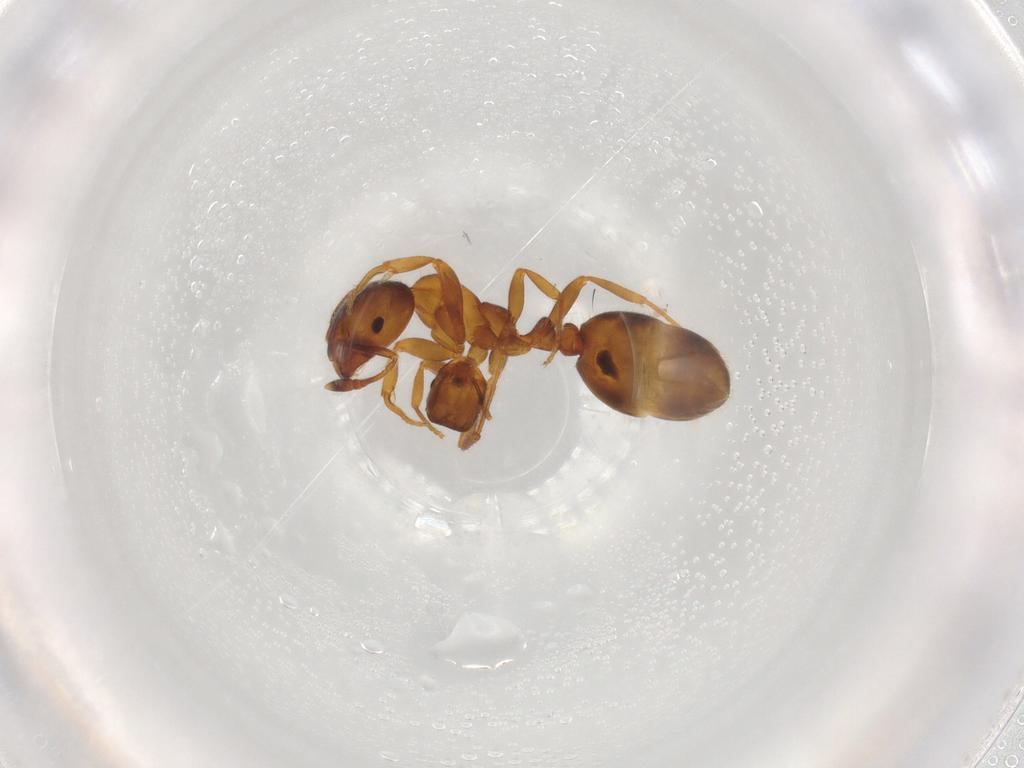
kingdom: Animalia
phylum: Arthropoda
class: Insecta
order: Hymenoptera
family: Formicidae
